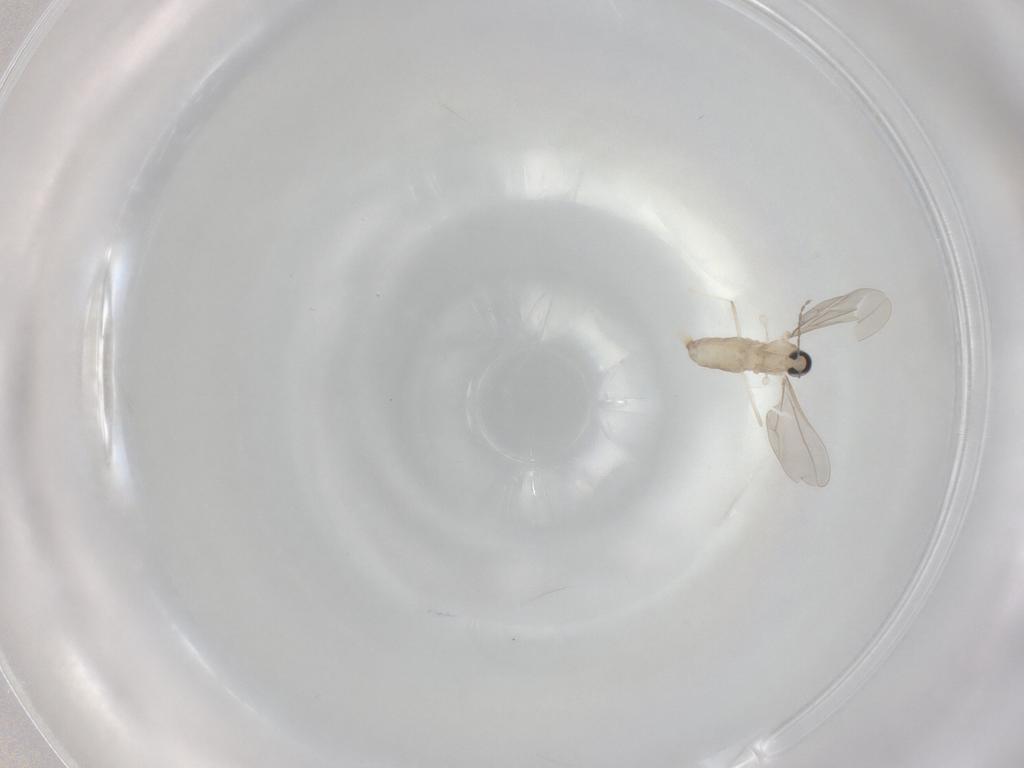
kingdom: Animalia
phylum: Arthropoda
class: Insecta
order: Diptera
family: Cecidomyiidae
